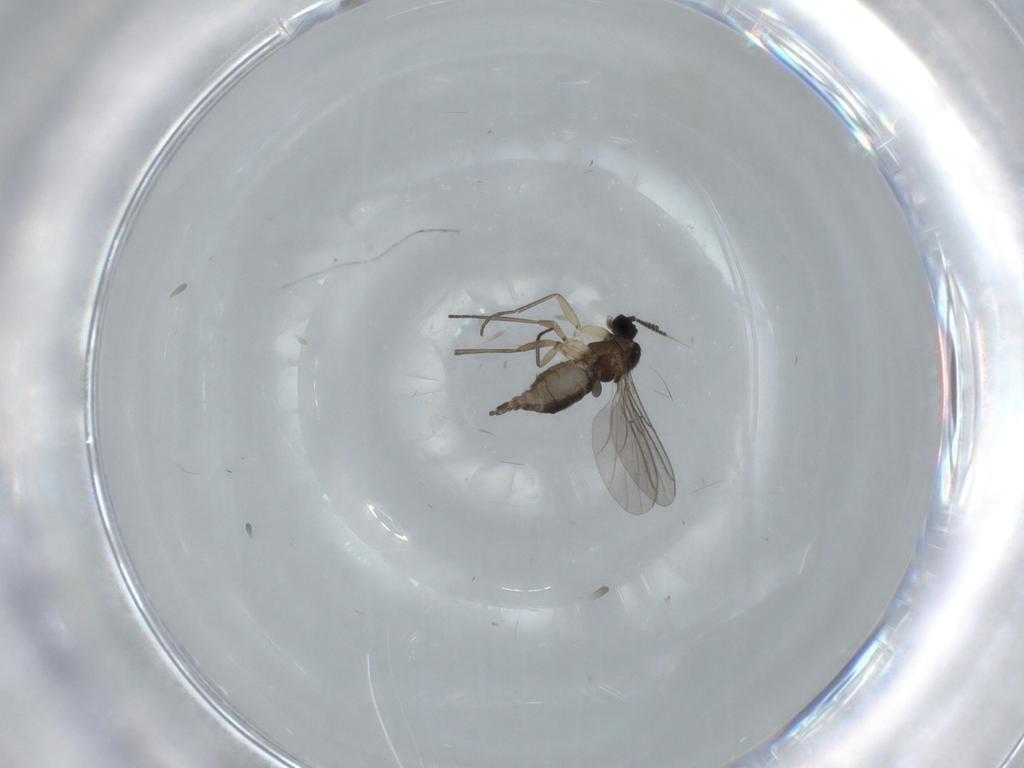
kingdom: Animalia
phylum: Arthropoda
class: Insecta
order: Diptera
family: Sciaridae
